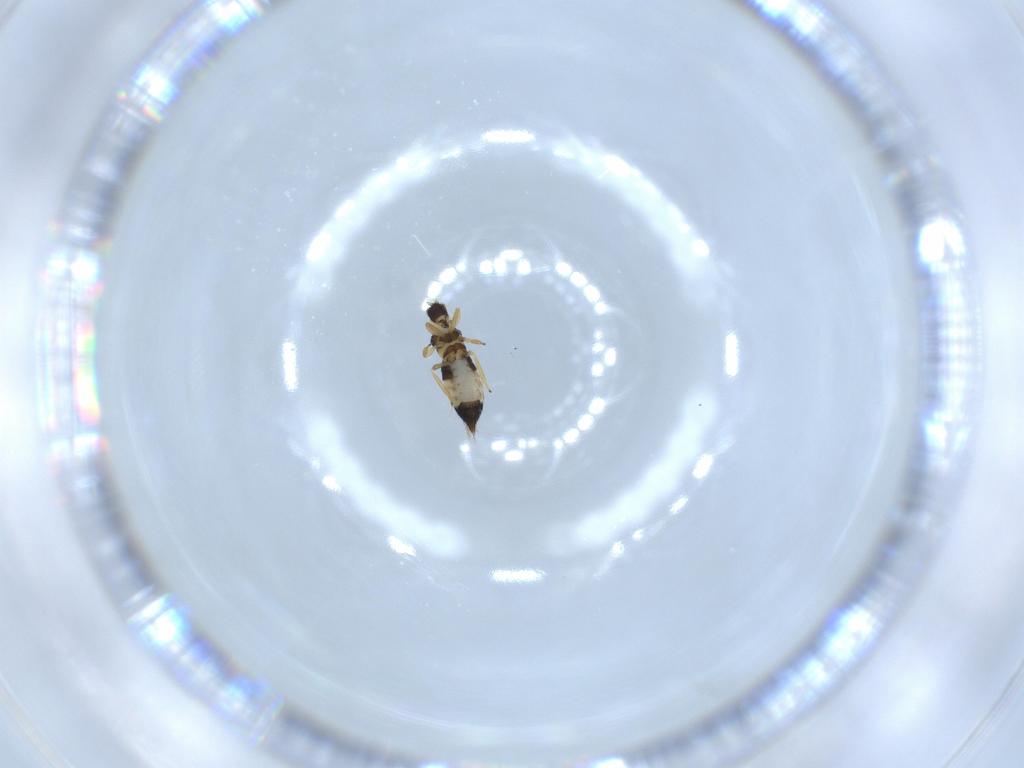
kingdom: Animalia
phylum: Arthropoda
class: Insecta
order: Thysanoptera
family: Thripidae
